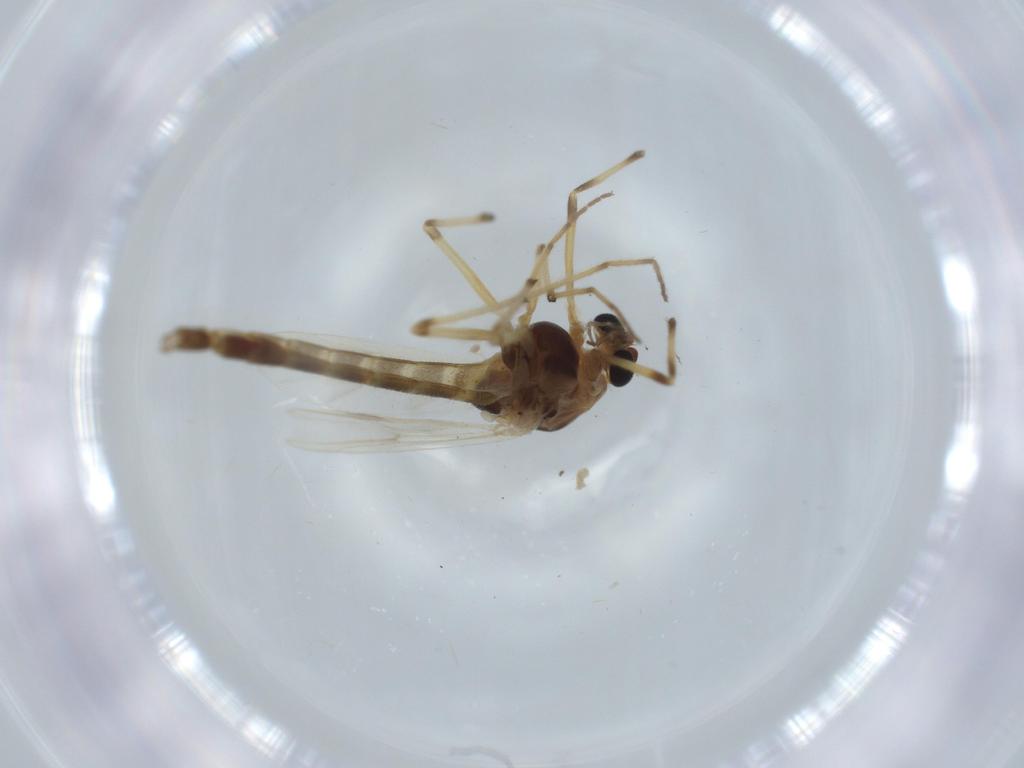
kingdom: Animalia
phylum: Arthropoda
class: Insecta
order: Diptera
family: Chironomidae
